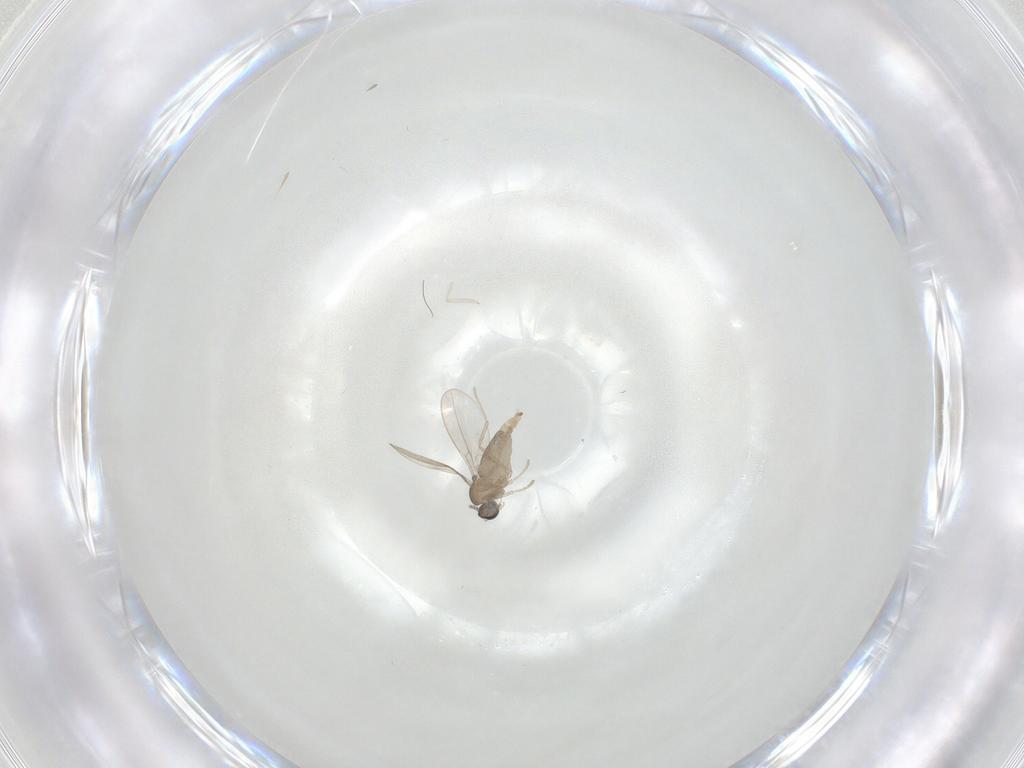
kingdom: Animalia
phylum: Arthropoda
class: Insecta
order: Diptera
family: Cecidomyiidae
